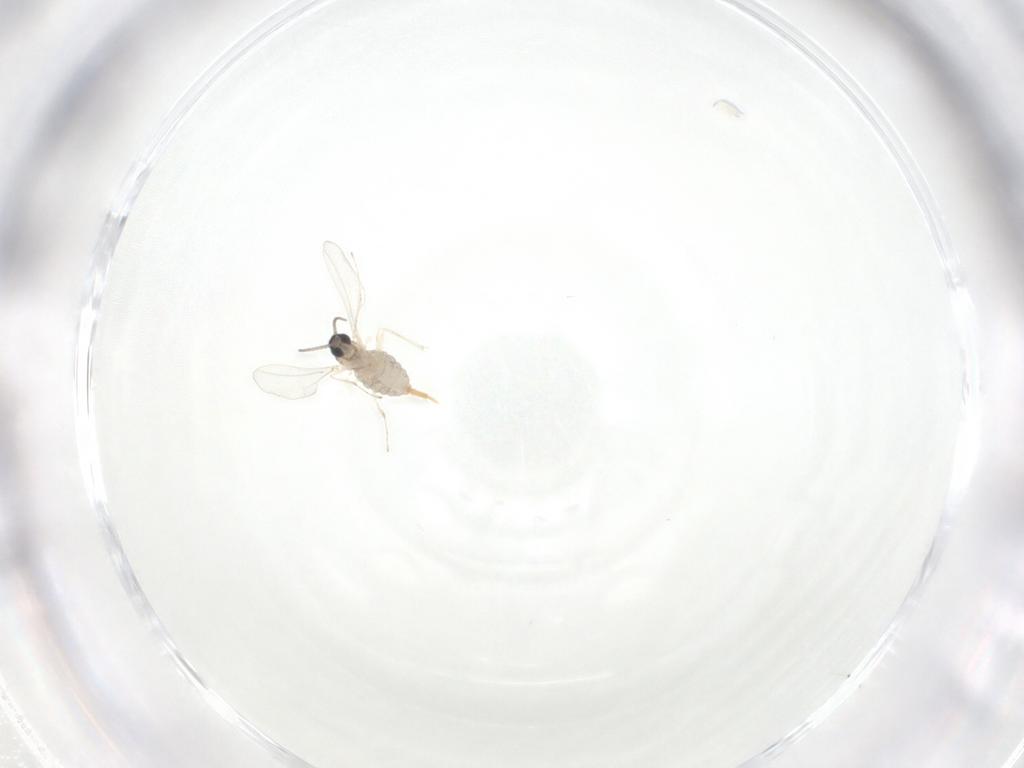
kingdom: Animalia
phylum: Arthropoda
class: Insecta
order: Diptera
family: Cecidomyiidae
